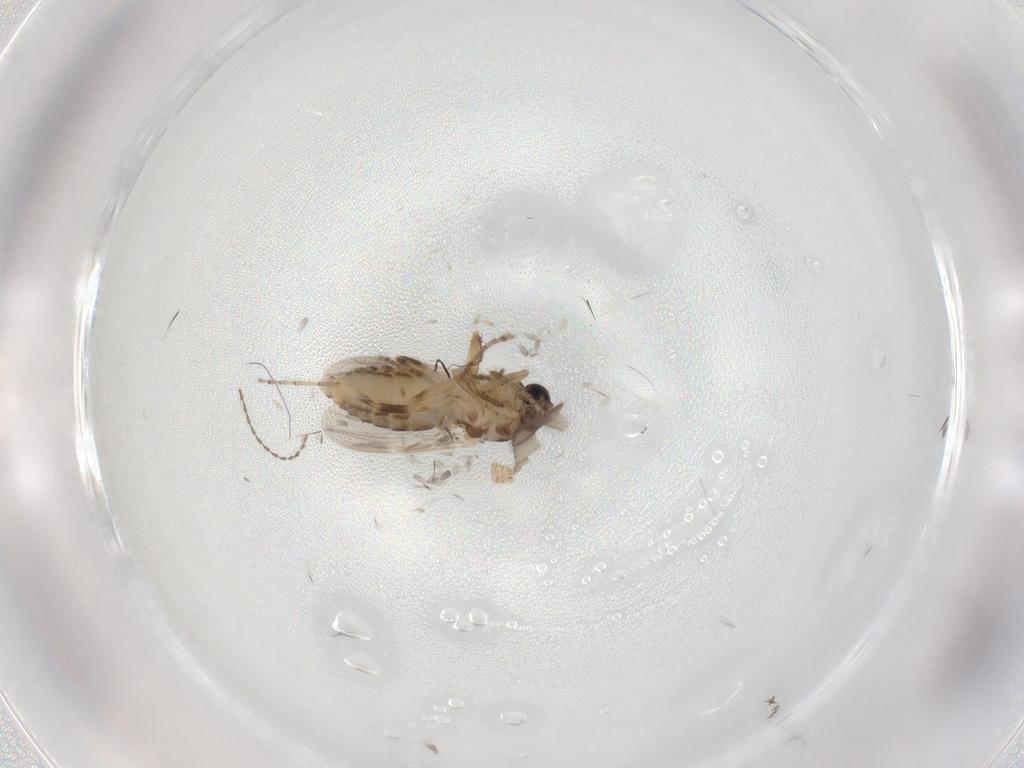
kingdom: Animalia
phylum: Arthropoda
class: Insecta
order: Diptera
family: Ceratopogonidae
